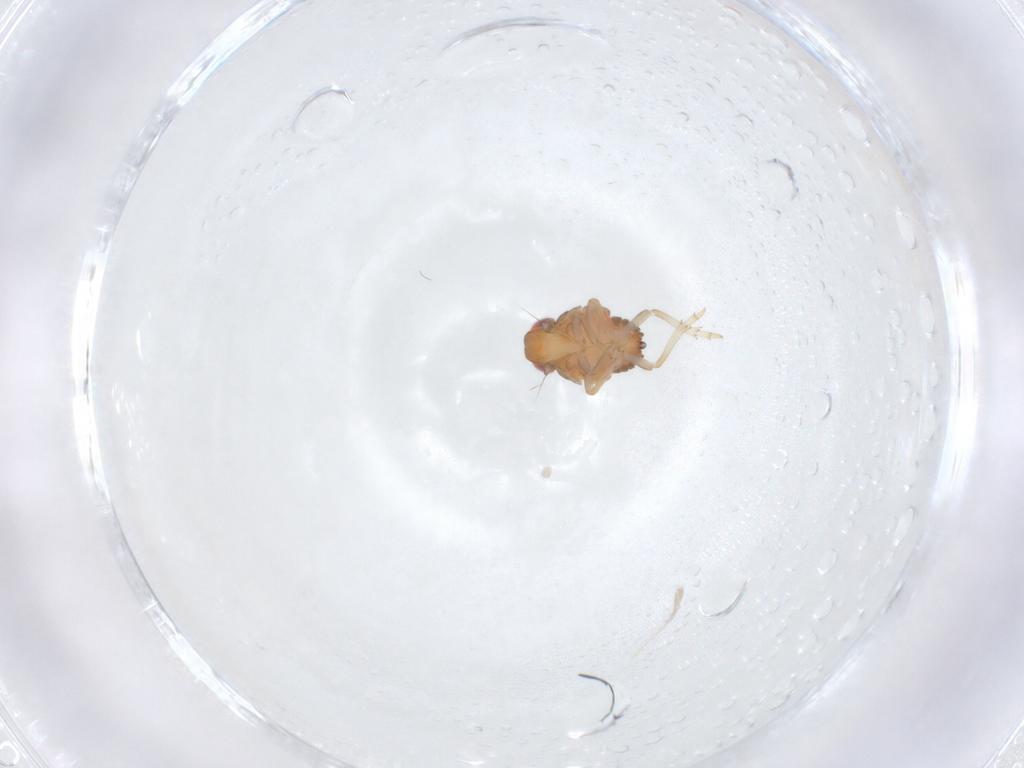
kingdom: Animalia
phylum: Arthropoda
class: Insecta
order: Hemiptera
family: Issidae
